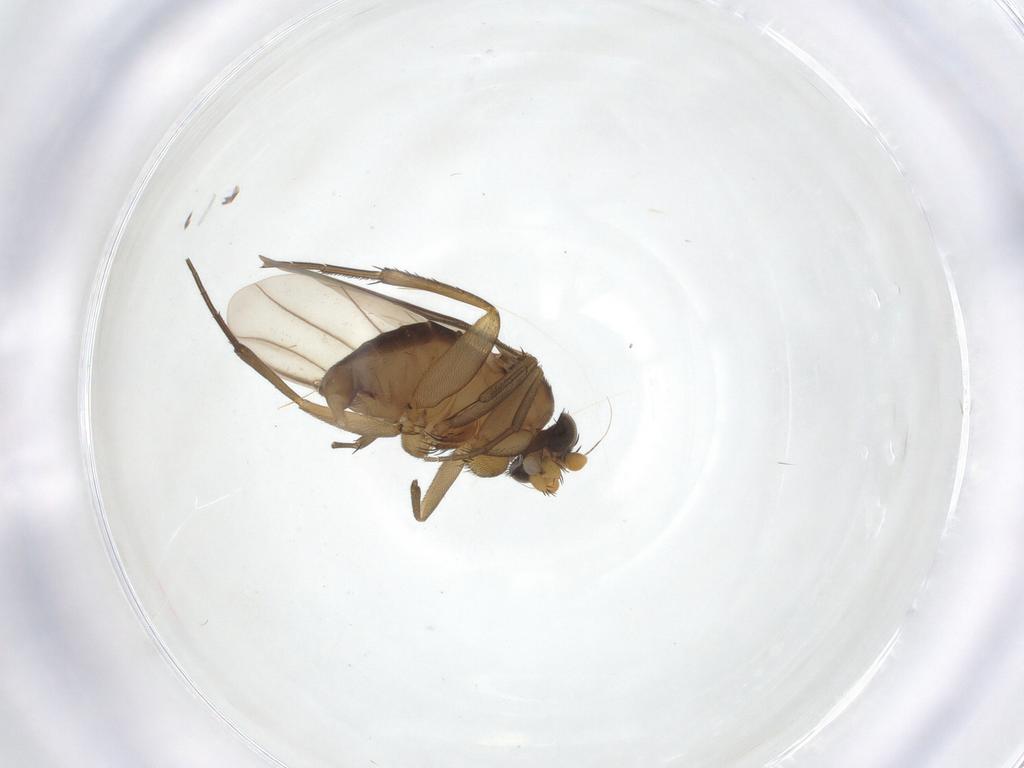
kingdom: Animalia
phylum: Arthropoda
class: Insecta
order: Diptera
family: Phoridae
